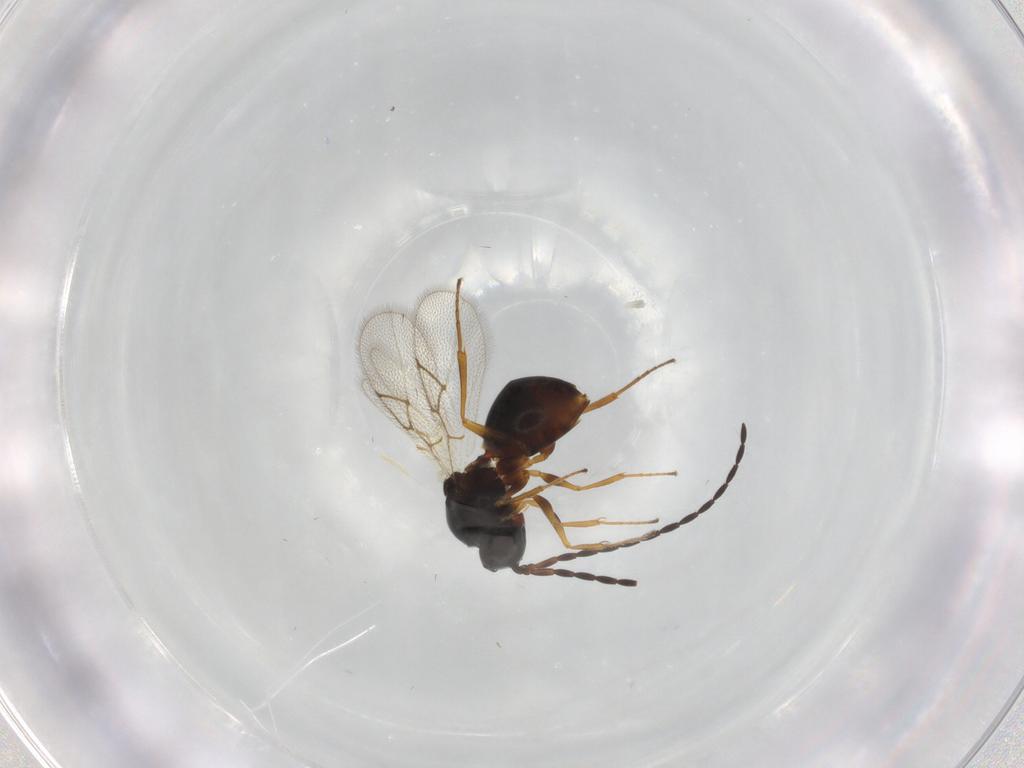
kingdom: Animalia
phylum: Arthropoda
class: Insecta
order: Hymenoptera
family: Figitidae
